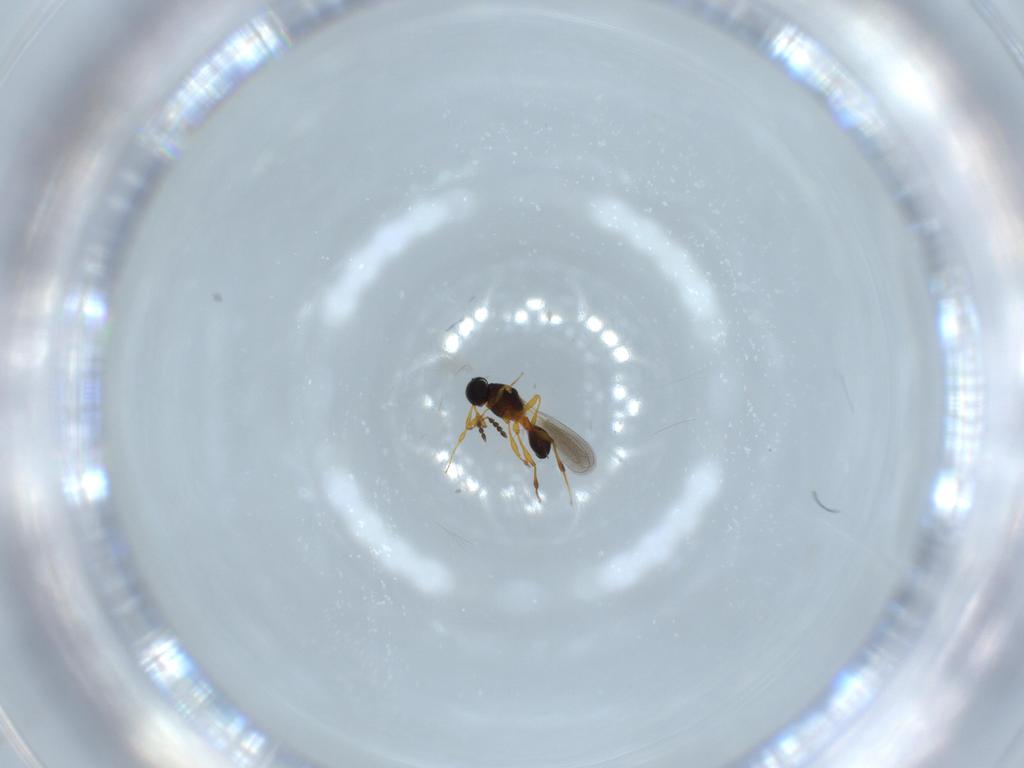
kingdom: Animalia
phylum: Arthropoda
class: Insecta
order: Hymenoptera
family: Platygastridae
